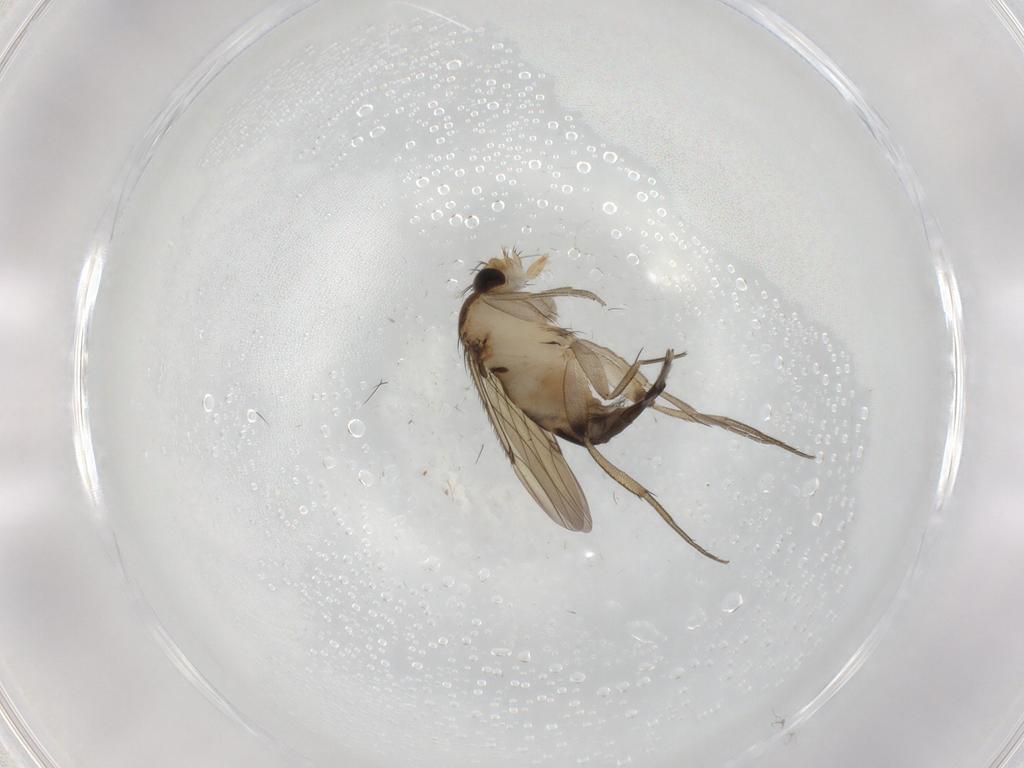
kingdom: Animalia
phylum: Arthropoda
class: Insecta
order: Diptera
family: Phoridae
